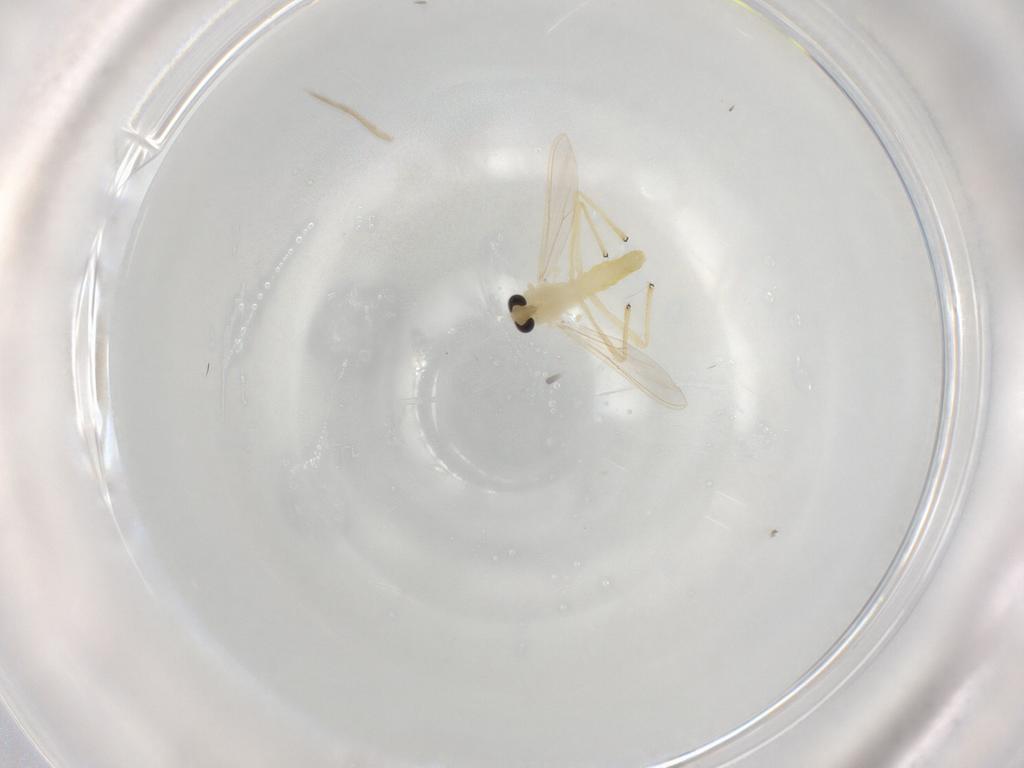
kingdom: Animalia
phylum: Arthropoda
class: Insecta
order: Diptera
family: Chironomidae
